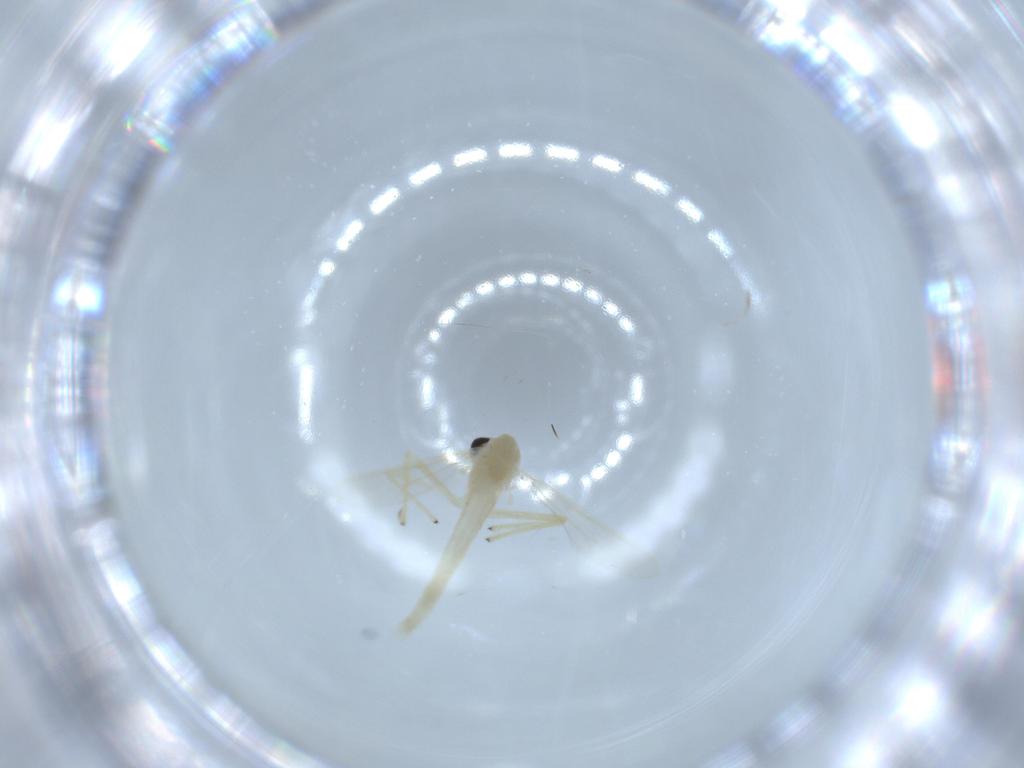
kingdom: Animalia
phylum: Arthropoda
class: Insecta
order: Diptera
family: Chironomidae
